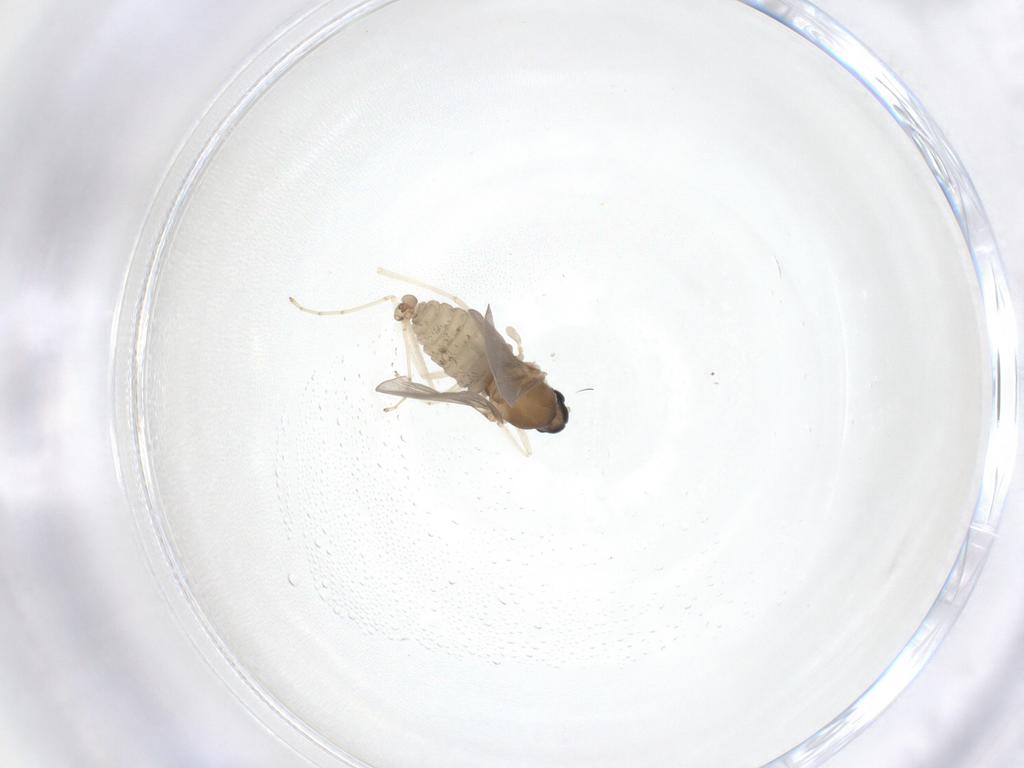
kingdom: Animalia
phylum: Arthropoda
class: Insecta
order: Diptera
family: Cecidomyiidae
